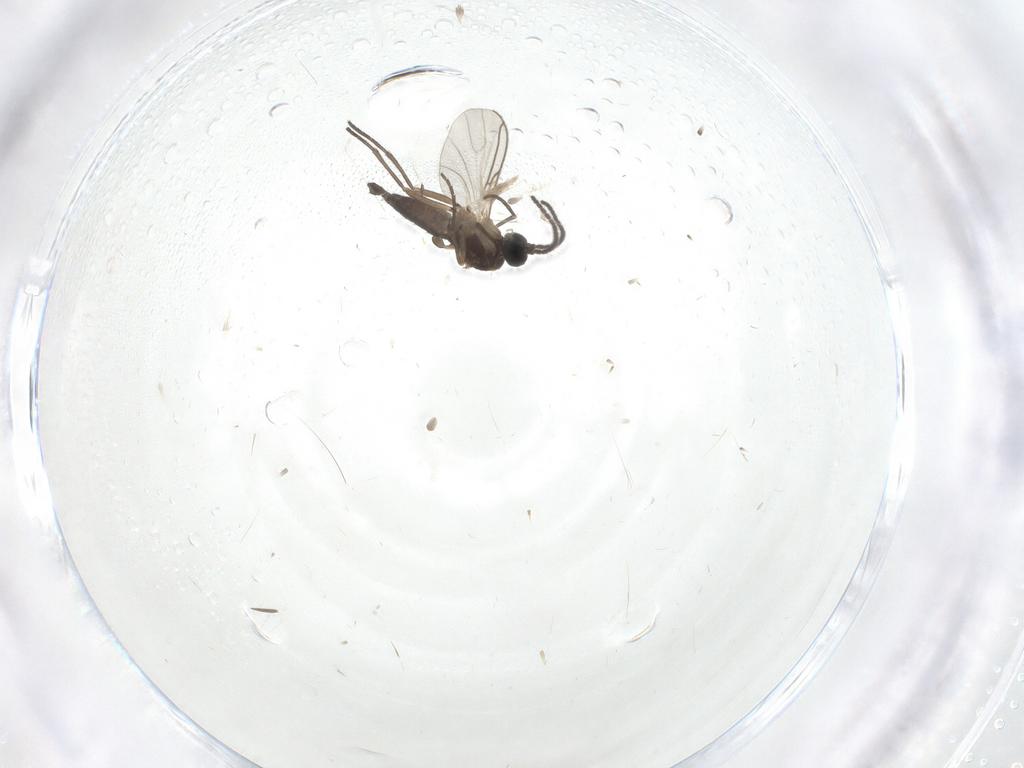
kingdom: Animalia
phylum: Arthropoda
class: Insecta
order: Diptera
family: Sciaridae
